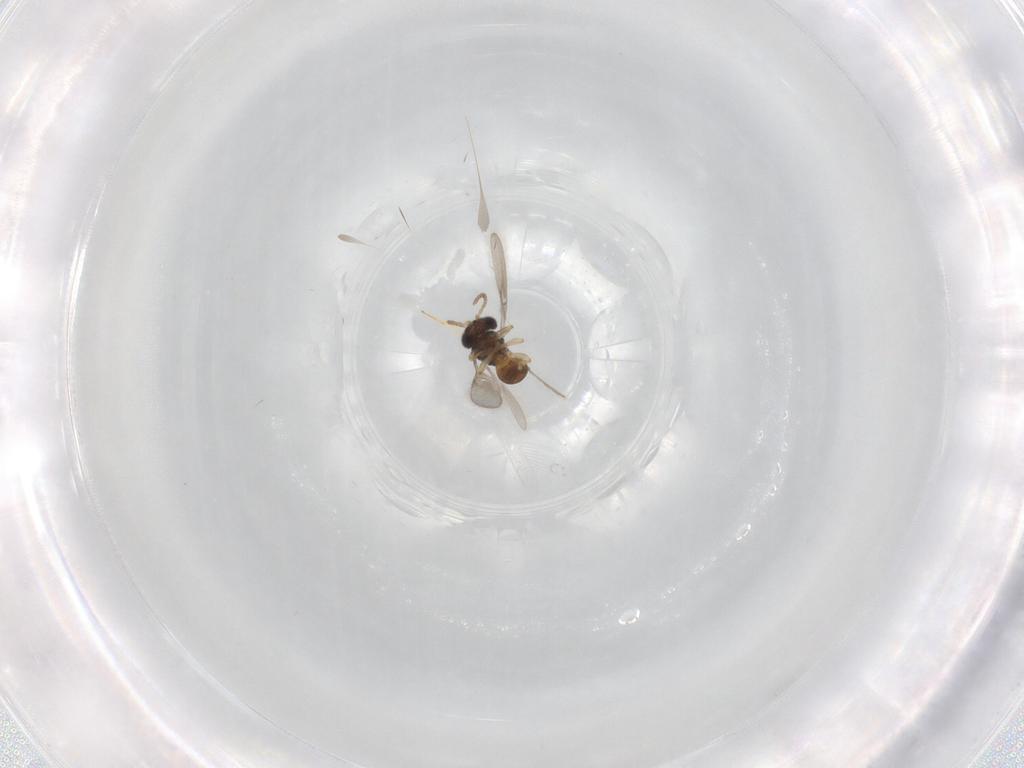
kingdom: Animalia
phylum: Arthropoda
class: Insecta
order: Hymenoptera
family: Scelionidae
